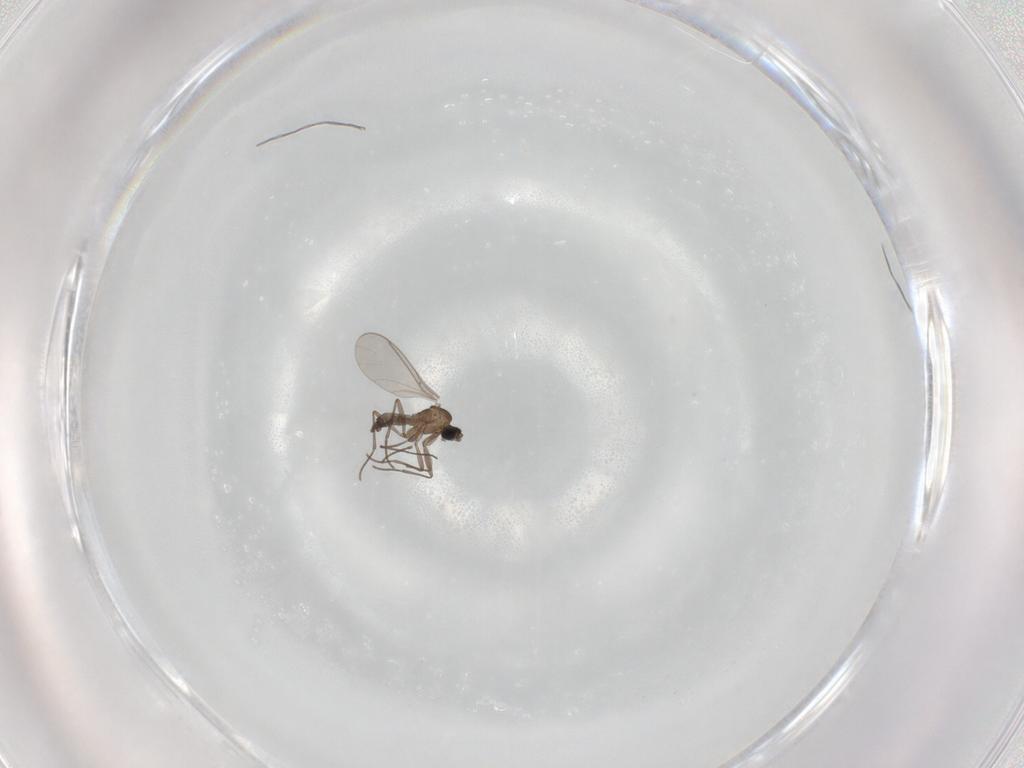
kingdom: Animalia
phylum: Arthropoda
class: Insecta
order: Diptera
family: Sciaridae
